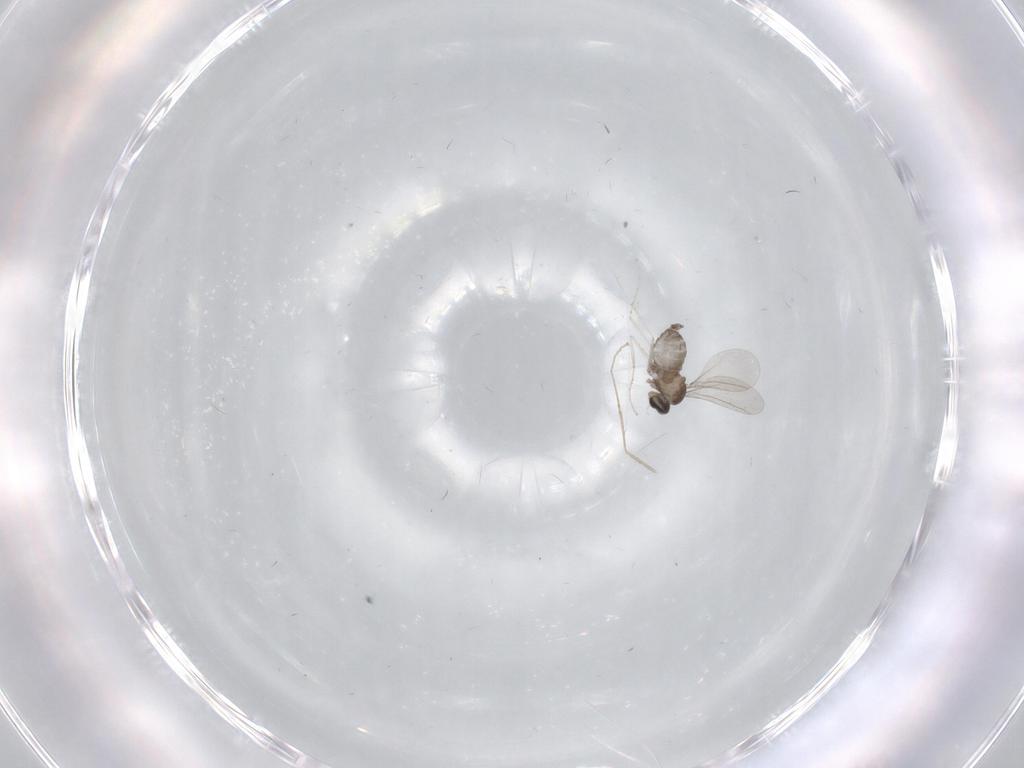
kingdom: Animalia
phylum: Arthropoda
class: Insecta
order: Diptera
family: Cecidomyiidae
